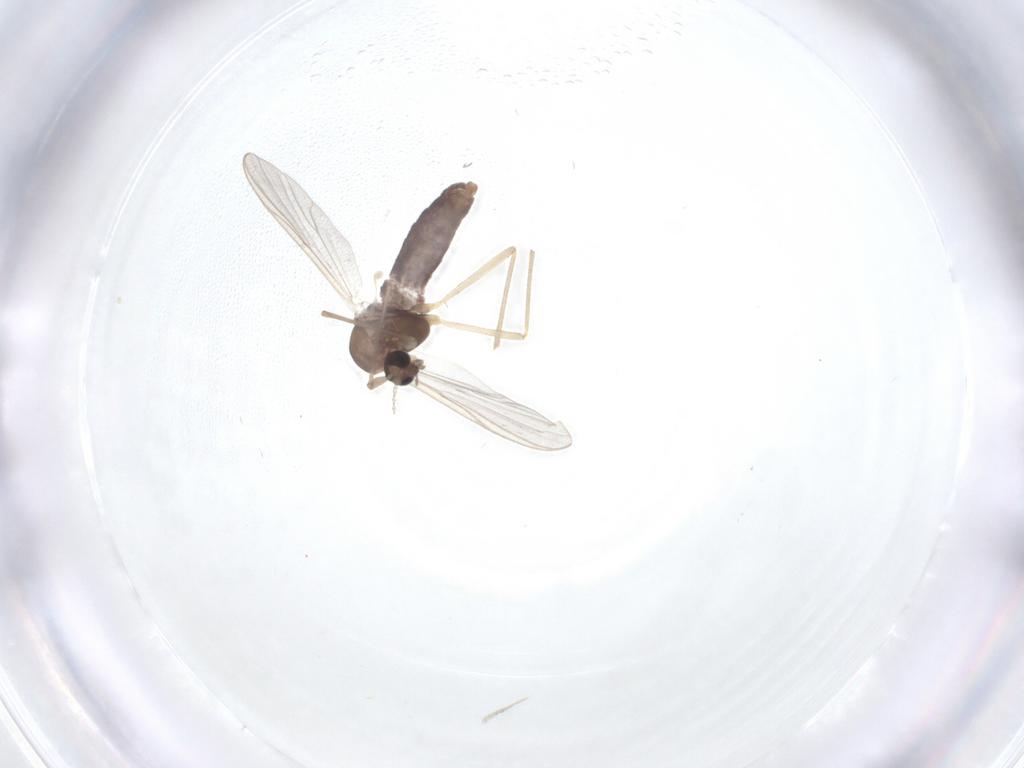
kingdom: Animalia
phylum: Arthropoda
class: Insecta
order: Diptera
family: Chironomidae
